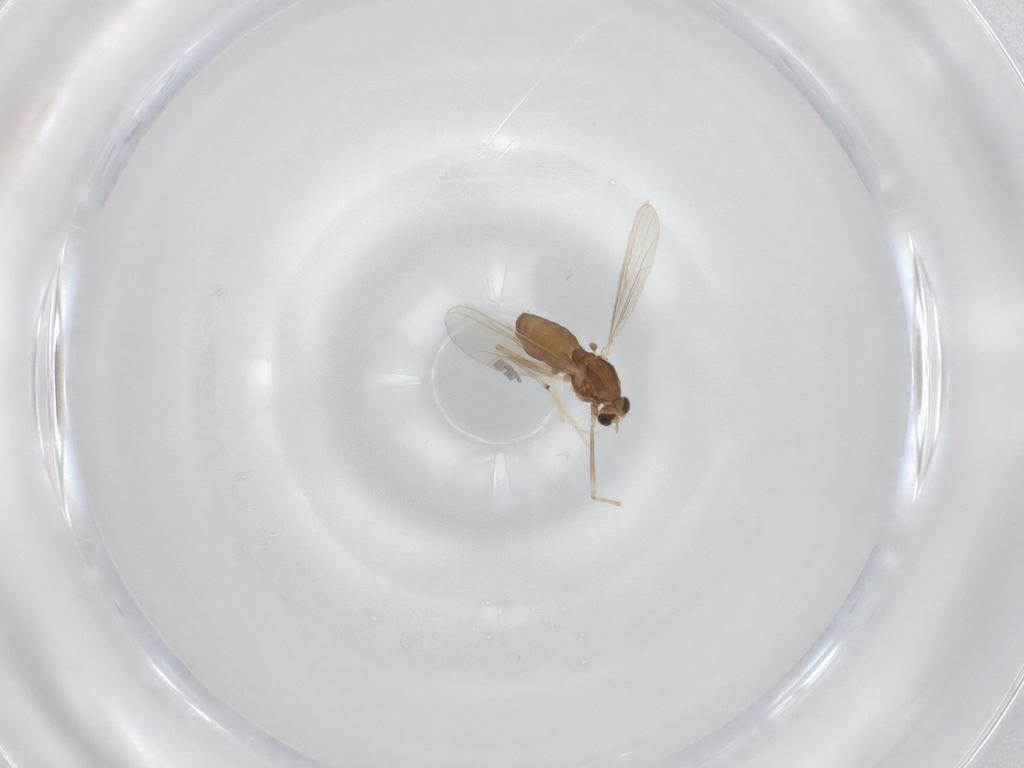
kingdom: Animalia
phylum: Arthropoda
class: Insecta
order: Diptera
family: Chironomidae
